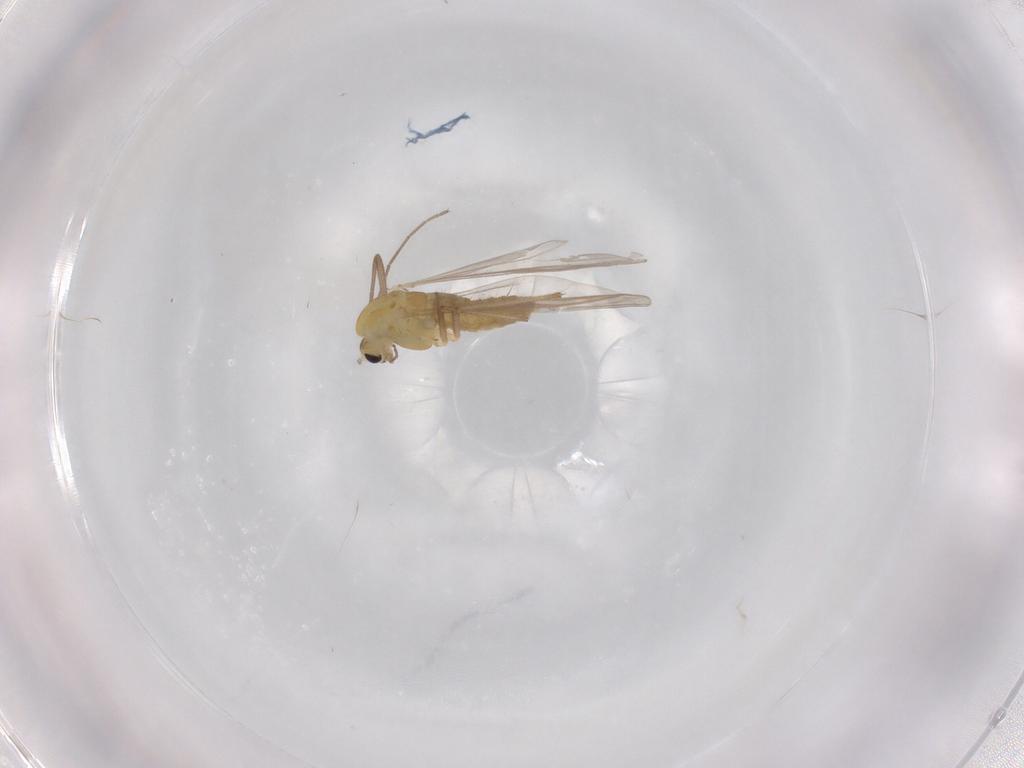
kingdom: Animalia
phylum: Arthropoda
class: Insecta
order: Diptera
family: Chironomidae
